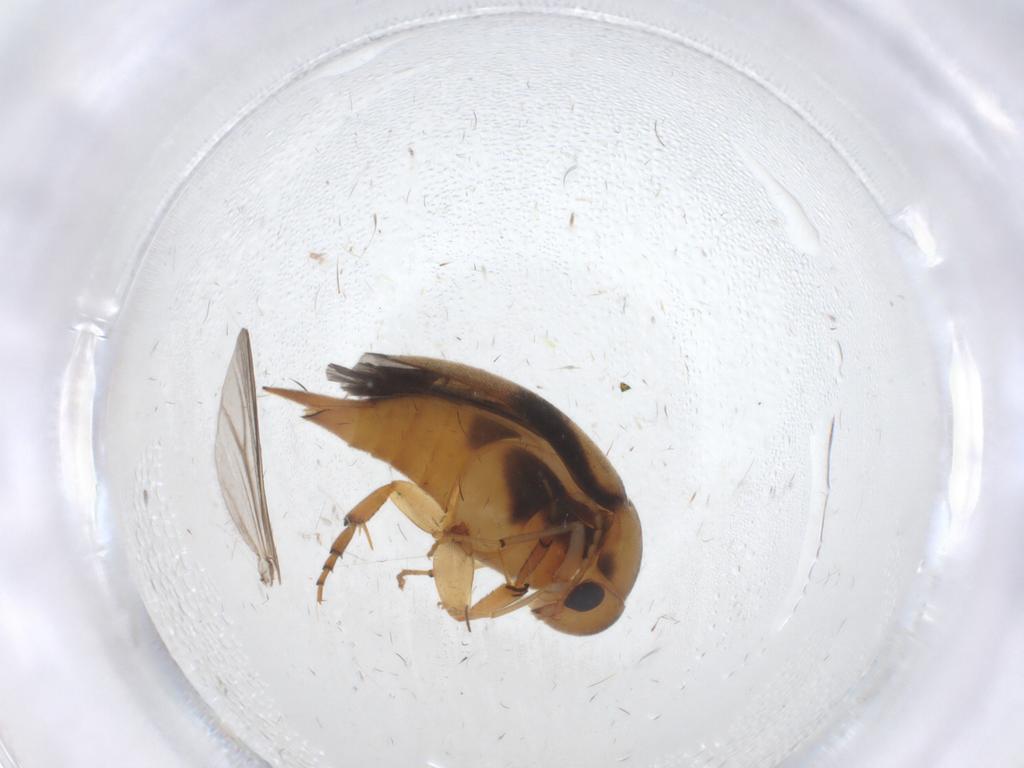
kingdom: Animalia
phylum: Arthropoda
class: Insecta
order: Coleoptera
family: Mordellidae
